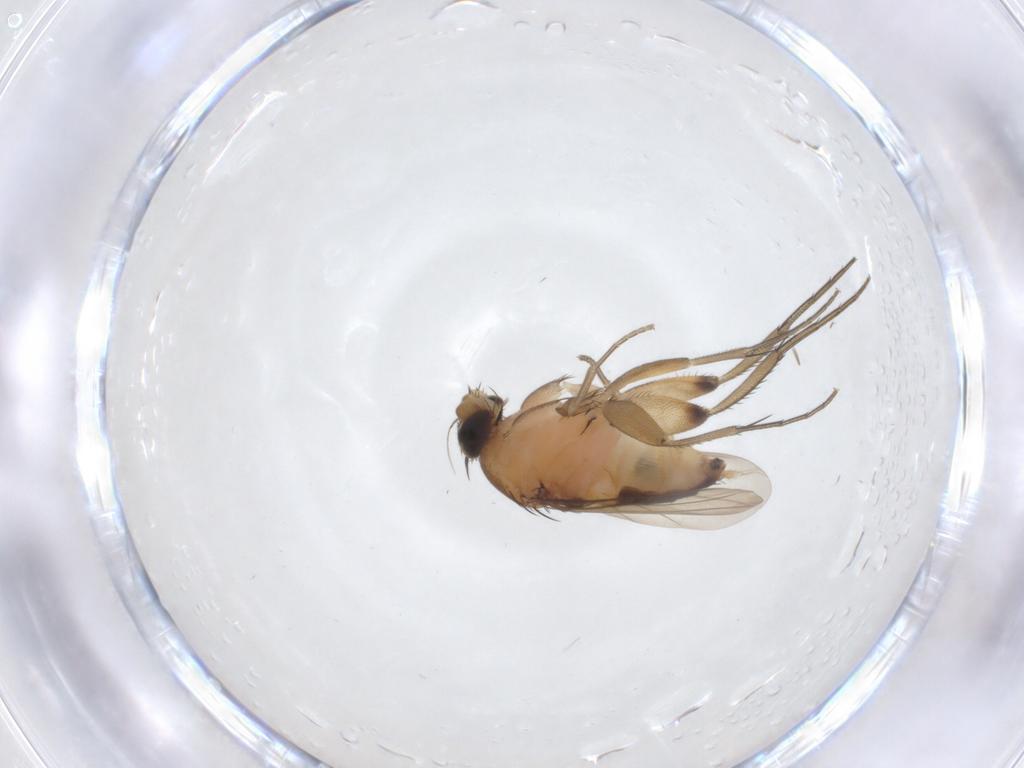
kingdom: Animalia
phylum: Arthropoda
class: Insecta
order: Diptera
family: Phoridae
